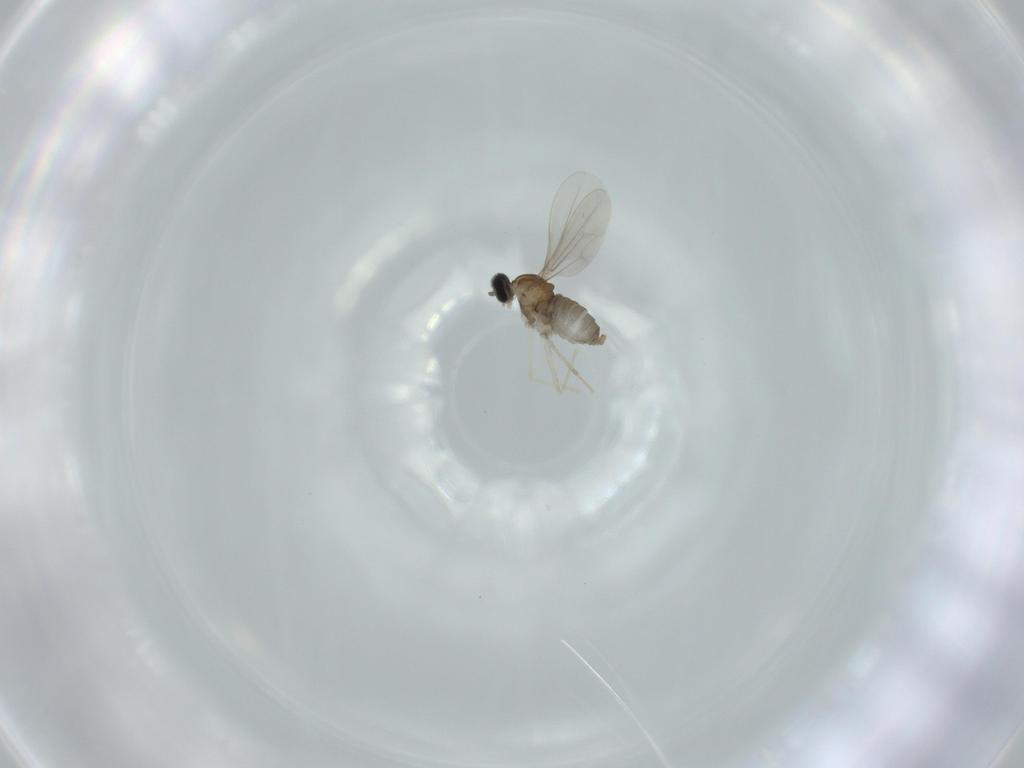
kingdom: Animalia
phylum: Arthropoda
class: Insecta
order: Diptera
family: Cecidomyiidae
